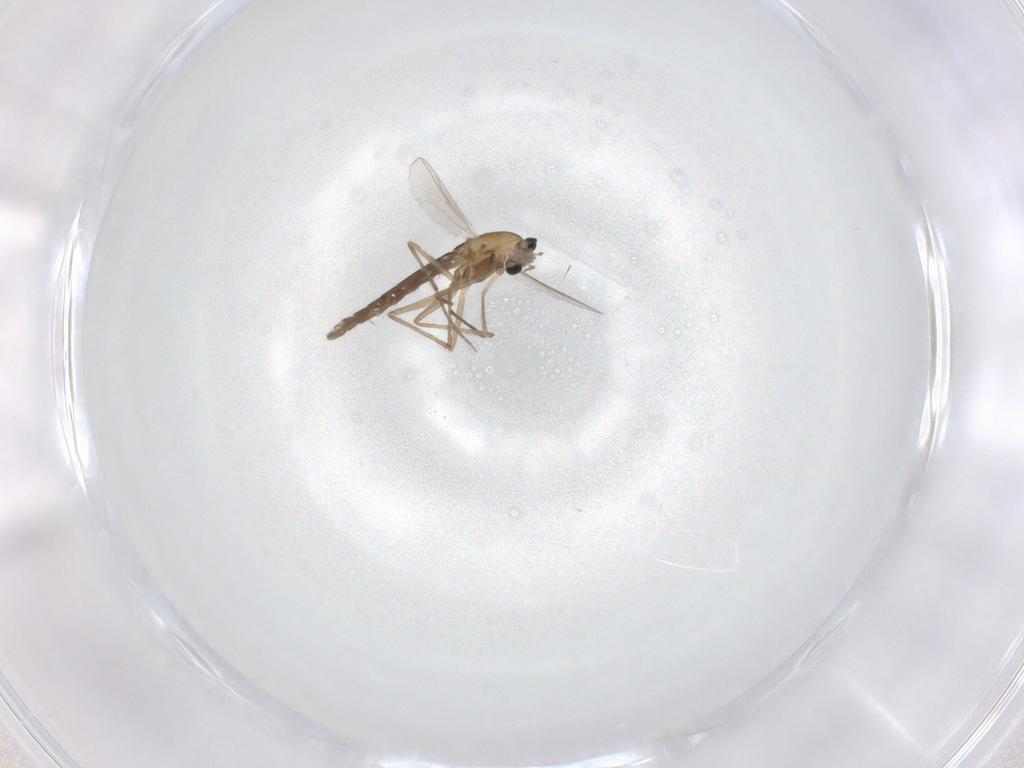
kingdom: Animalia
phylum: Arthropoda
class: Insecta
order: Diptera
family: Chironomidae
